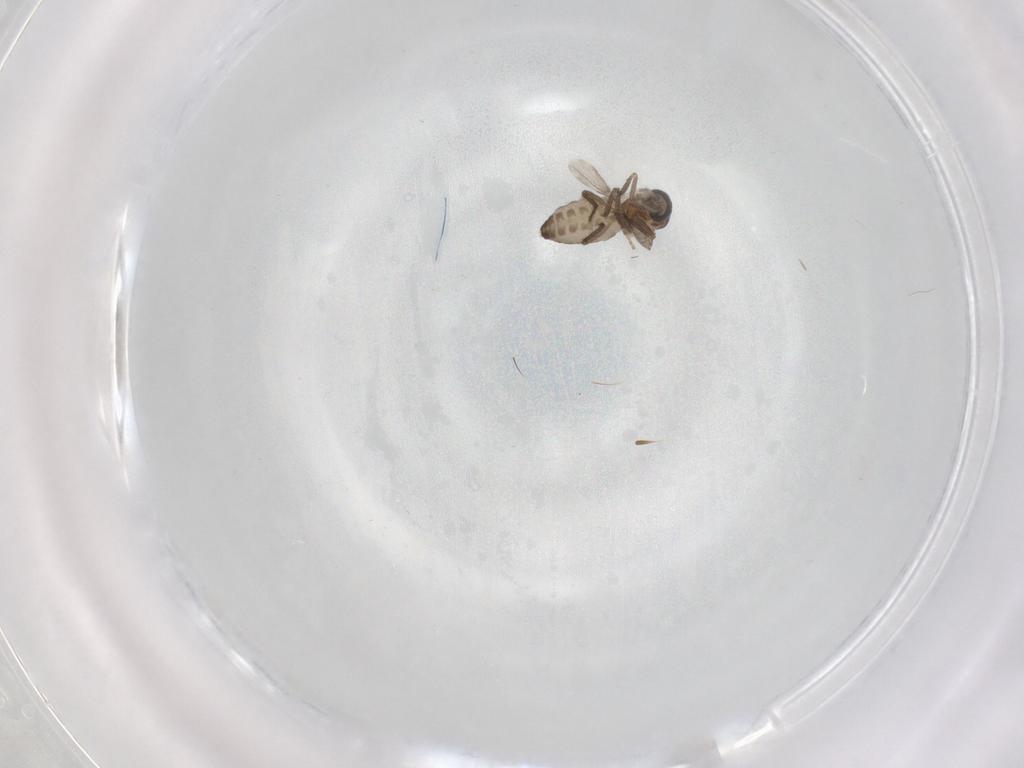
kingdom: Animalia
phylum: Arthropoda
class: Insecta
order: Diptera
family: Ceratopogonidae
